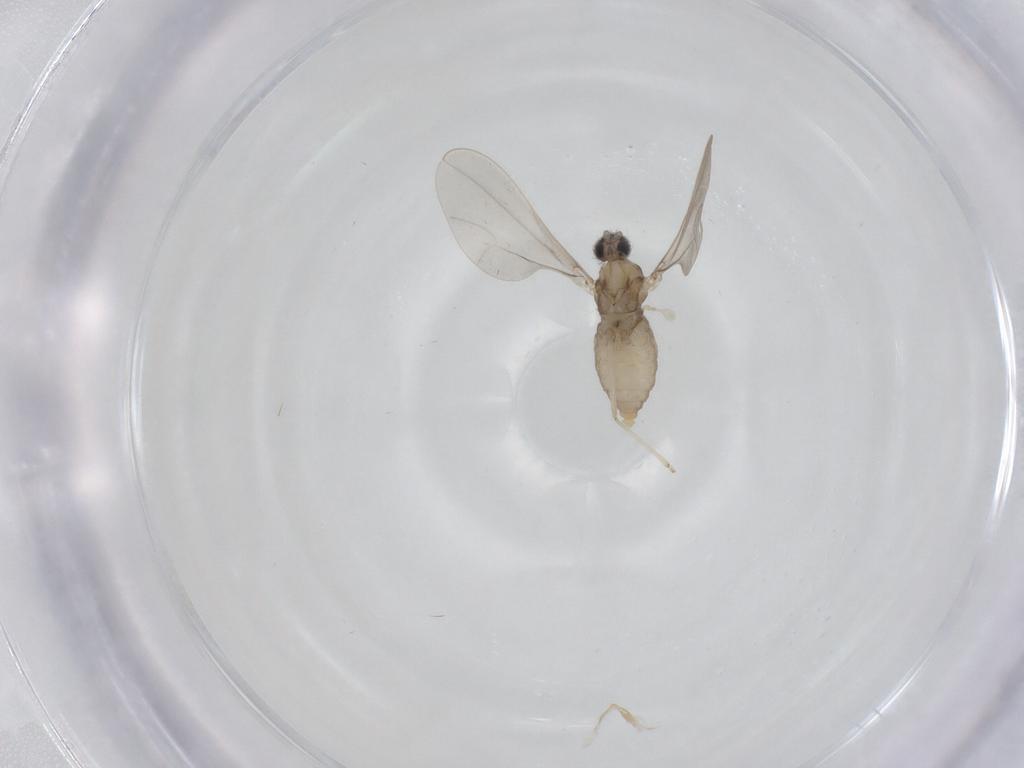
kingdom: Animalia
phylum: Arthropoda
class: Insecta
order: Diptera
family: Cecidomyiidae
